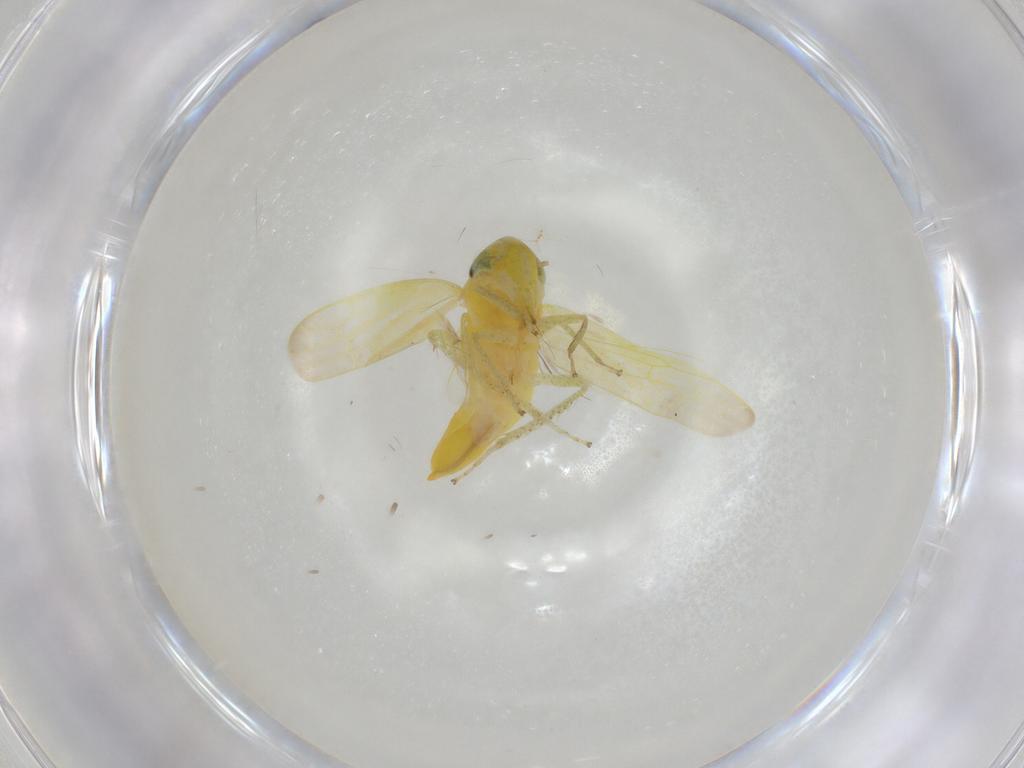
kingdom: Animalia
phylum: Arthropoda
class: Insecta
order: Hemiptera
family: Cicadellidae
